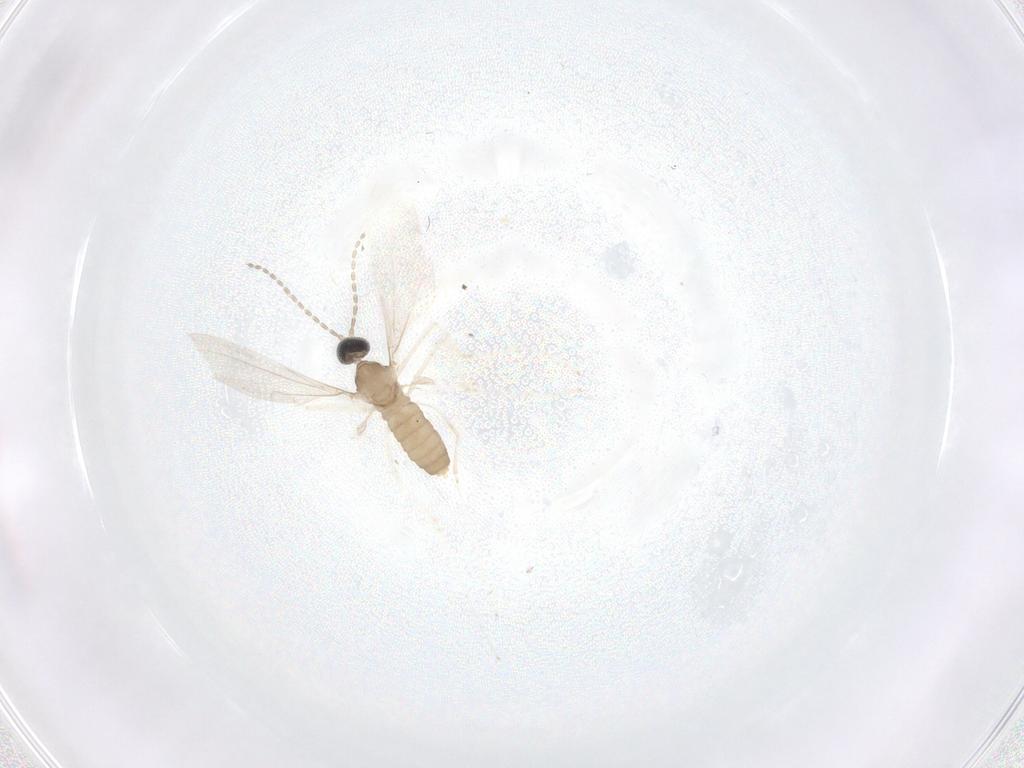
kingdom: Animalia
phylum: Arthropoda
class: Insecta
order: Diptera
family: Cecidomyiidae
